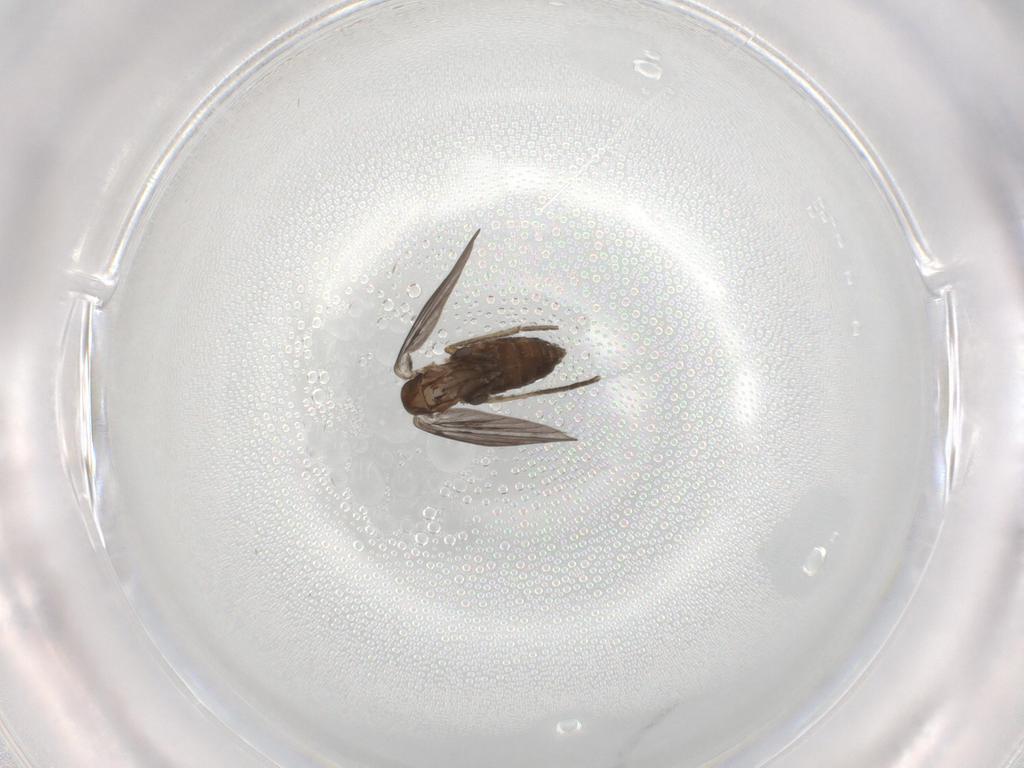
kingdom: Animalia
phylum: Arthropoda
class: Insecta
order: Diptera
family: Psychodidae
